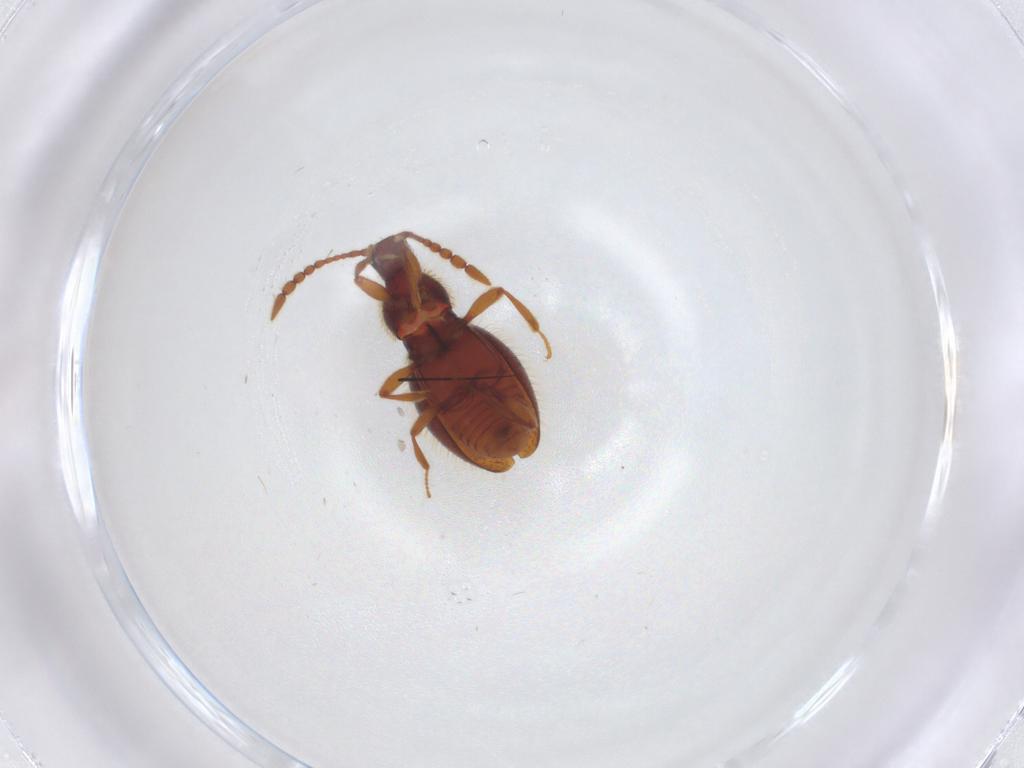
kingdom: Animalia
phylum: Arthropoda
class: Insecta
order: Coleoptera
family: Staphylinidae
